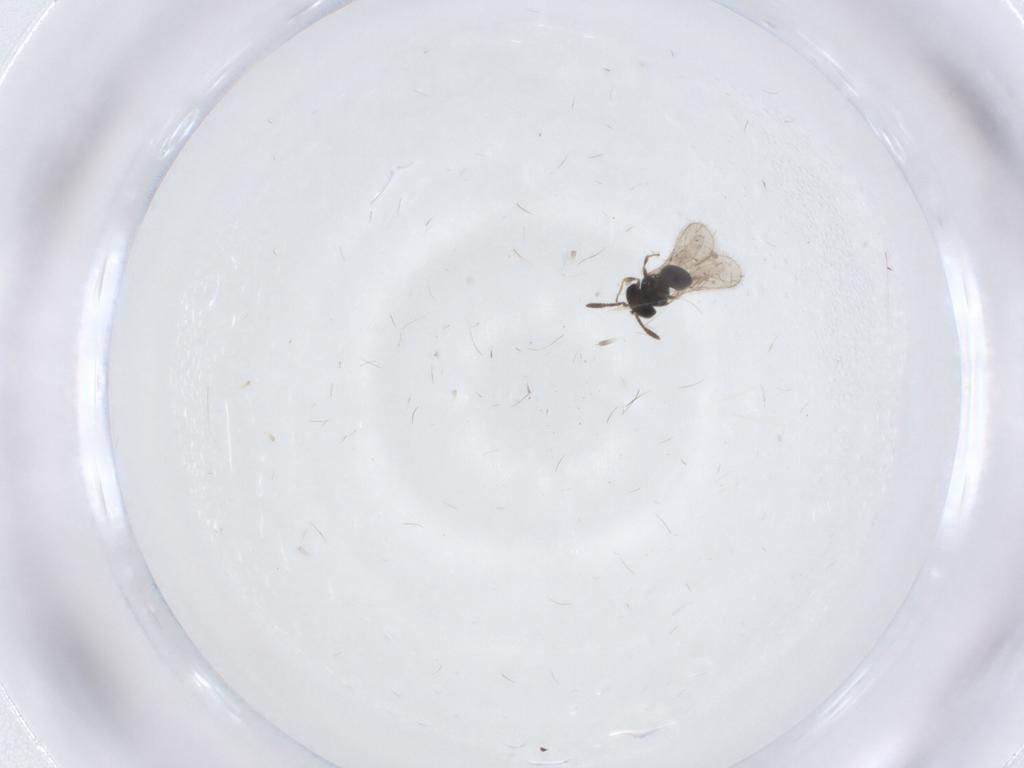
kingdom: Animalia
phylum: Arthropoda
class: Insecta
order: Hymenoptera
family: Scelionidae
